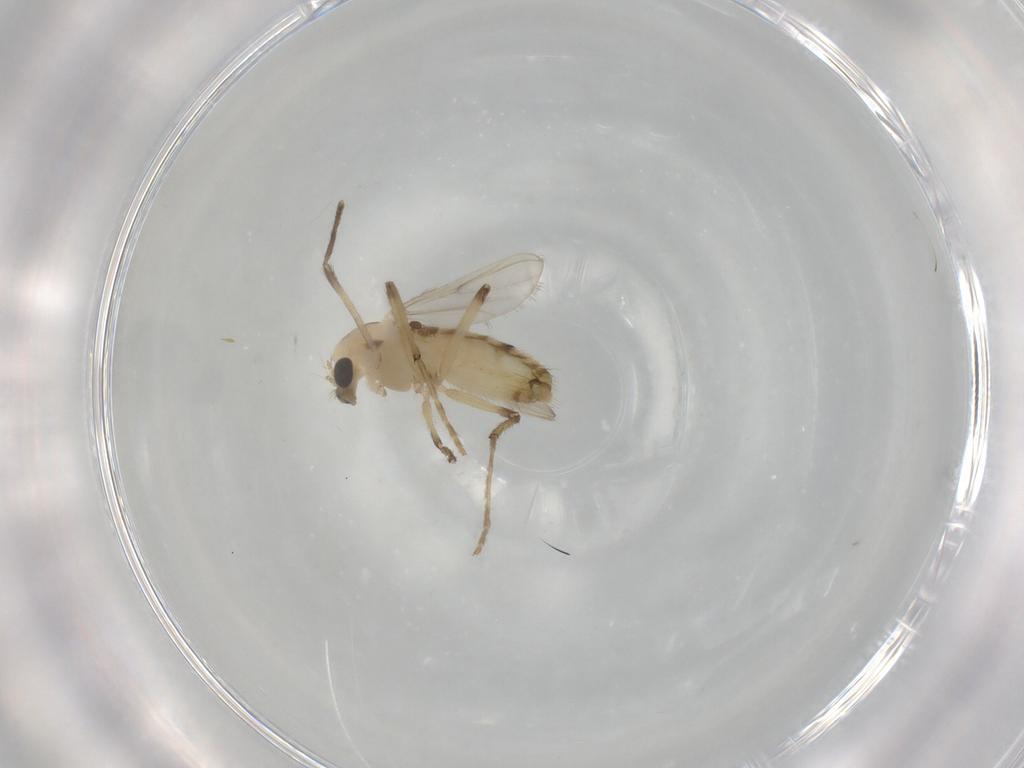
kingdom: Animalia
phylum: Arthropoda
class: Insecta
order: Diptera
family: Chironomidae
